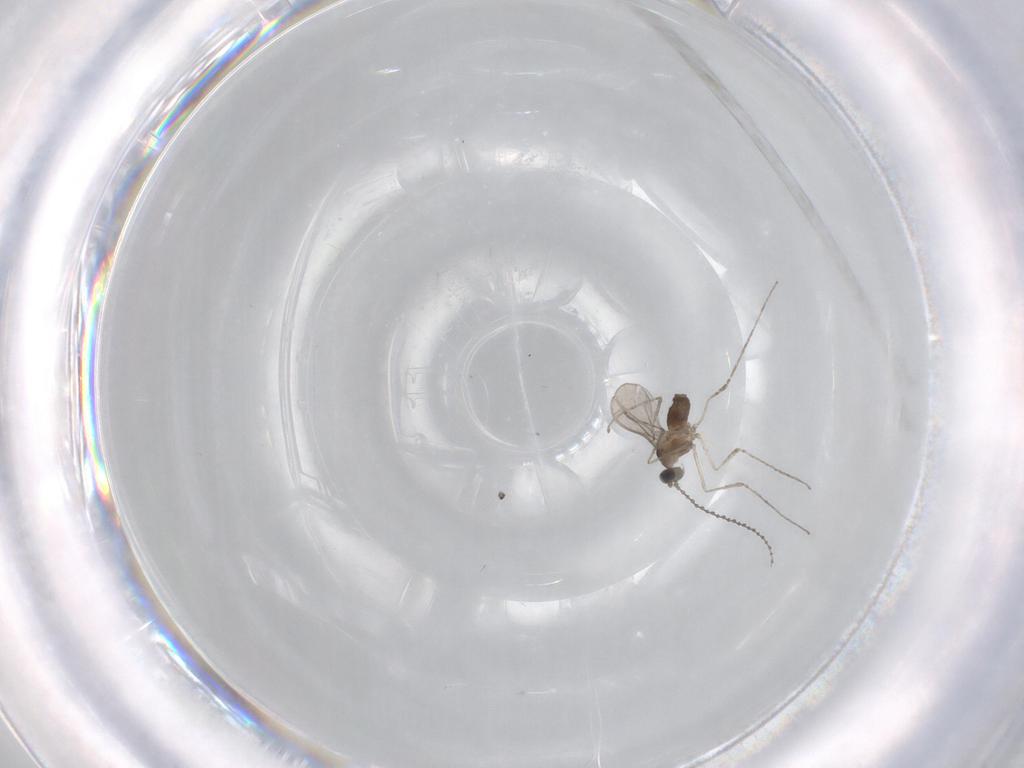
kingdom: Animalia
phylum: Arthropoda
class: Insecta
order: Diptera
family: Cecidomyiidae
